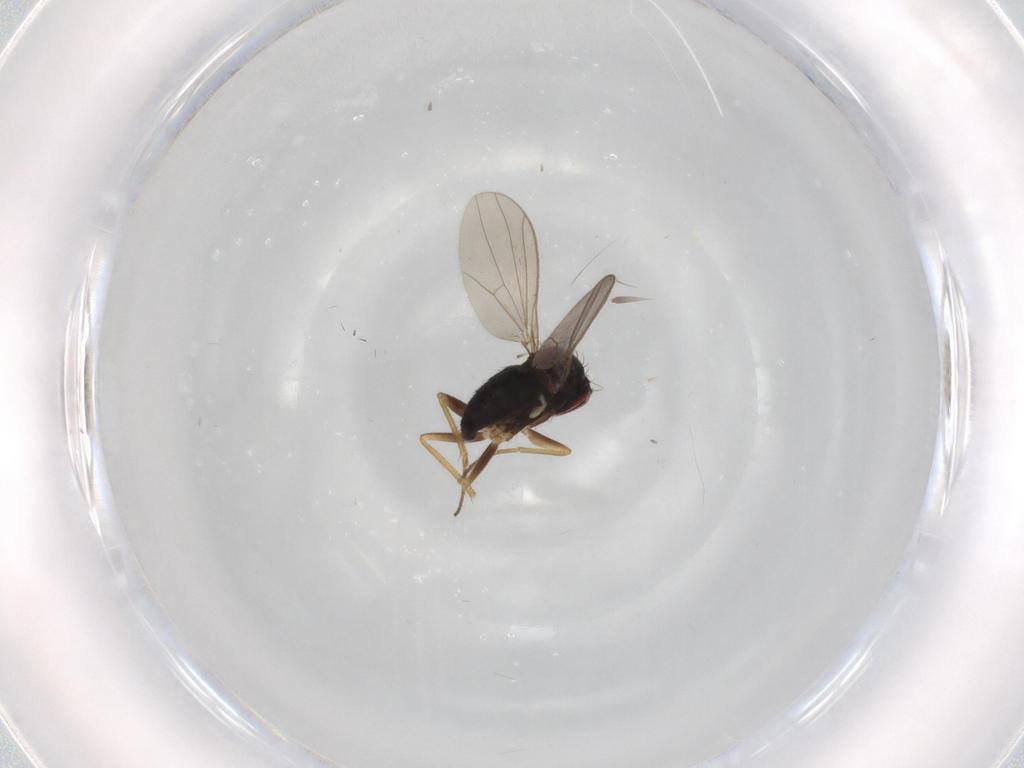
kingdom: Animalia
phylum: Arthropoda
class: Insecta
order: Diptera
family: Dolichopodidae
